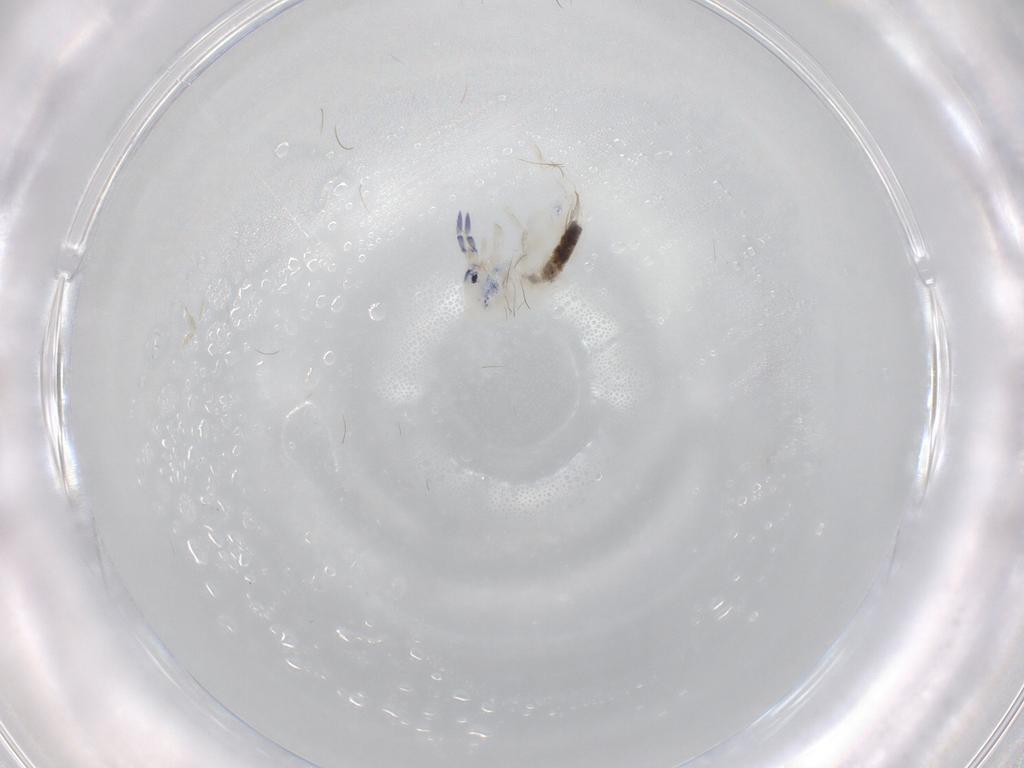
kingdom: Animalia
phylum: Arthropoda
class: Collembola
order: Entomobryomorpha
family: Entomobryidae
